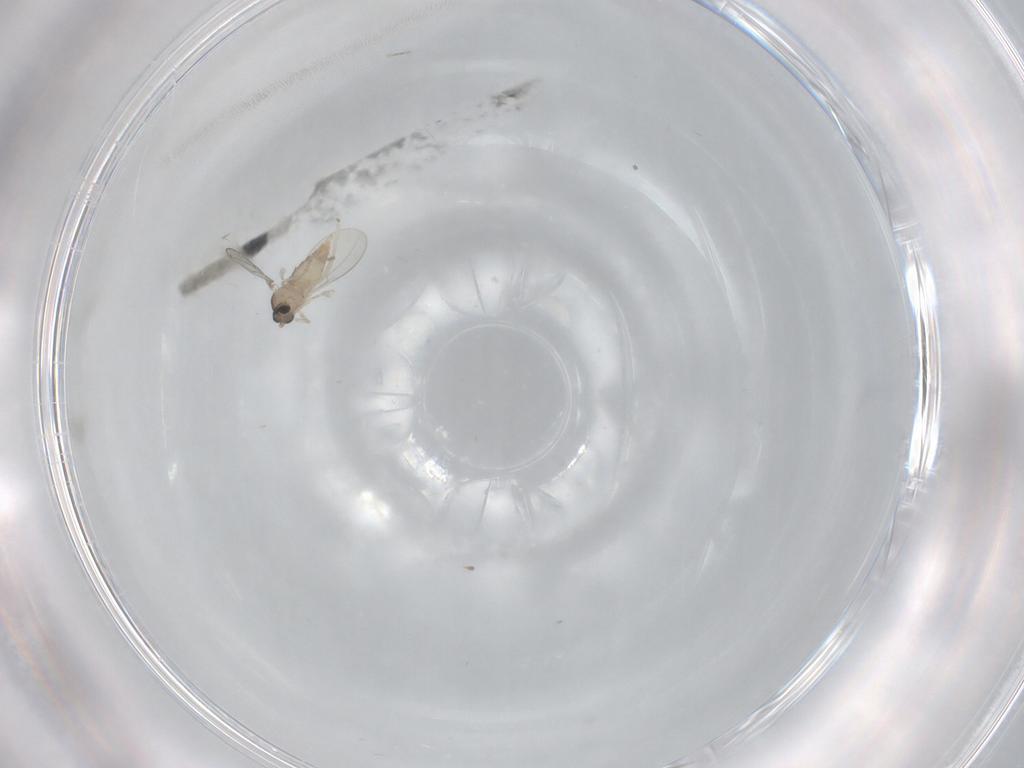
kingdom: Animalia
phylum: Arthropoda
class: Insecta
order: Diptera
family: Cecidomyiidae
